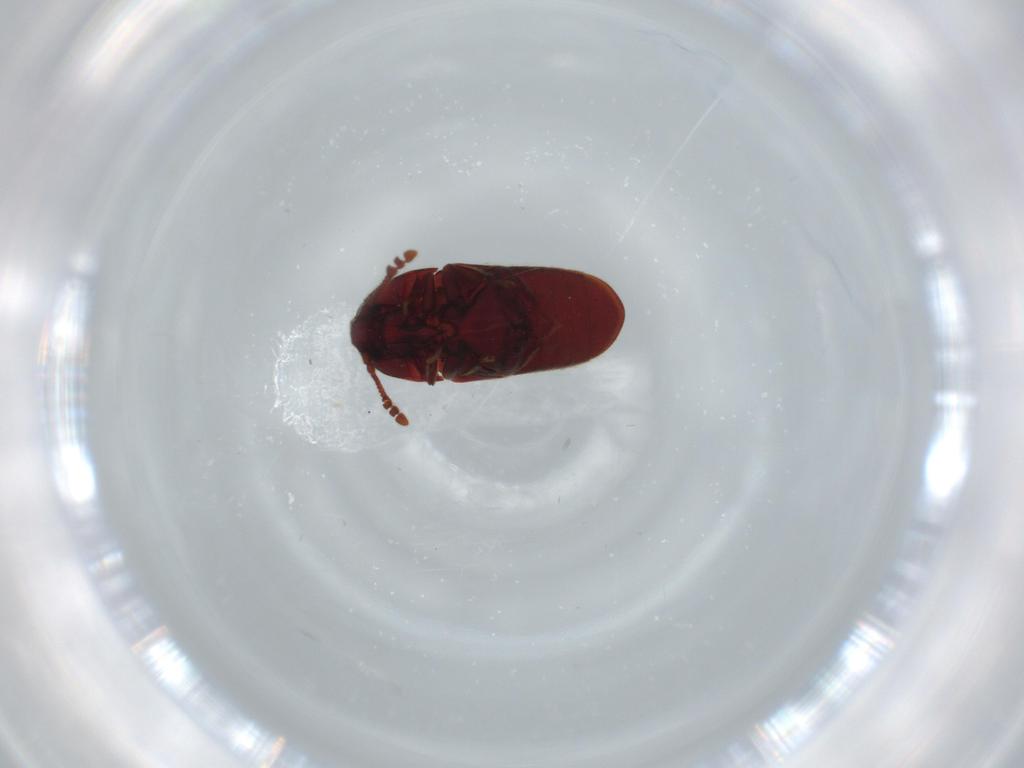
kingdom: Animalia
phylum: Arthropoda
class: Insecta
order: Coleoptera
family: Throscidae
